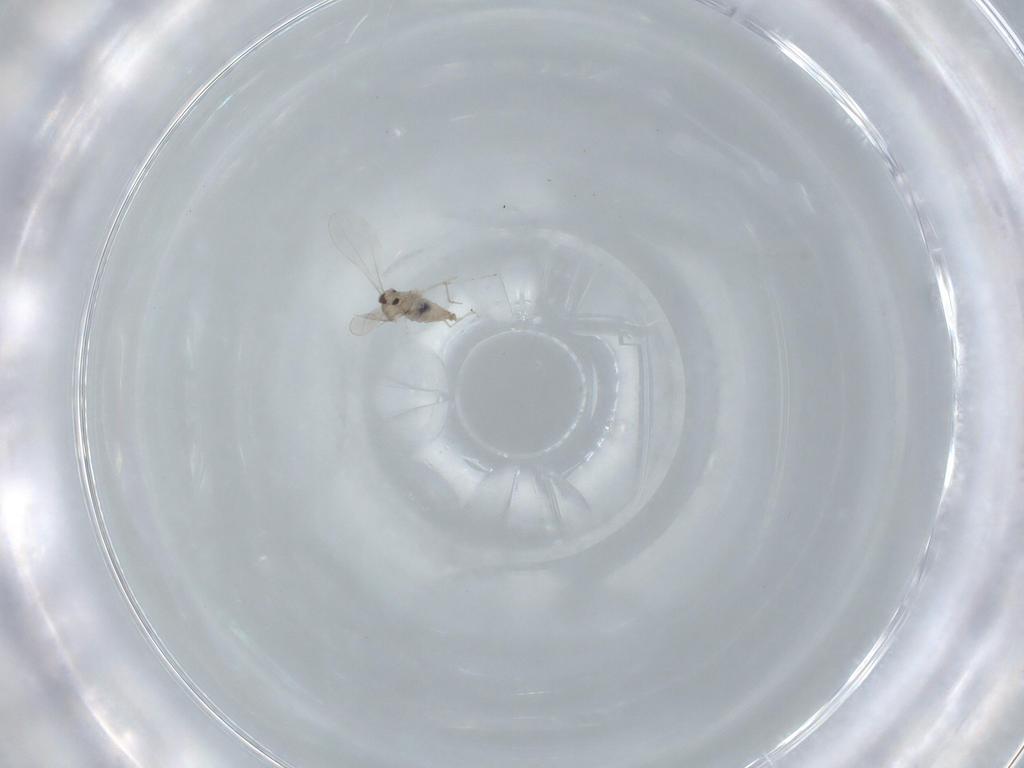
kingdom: Animalia
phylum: Arthropoda
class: Insecta
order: Diptera
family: Cecidomyiidae
